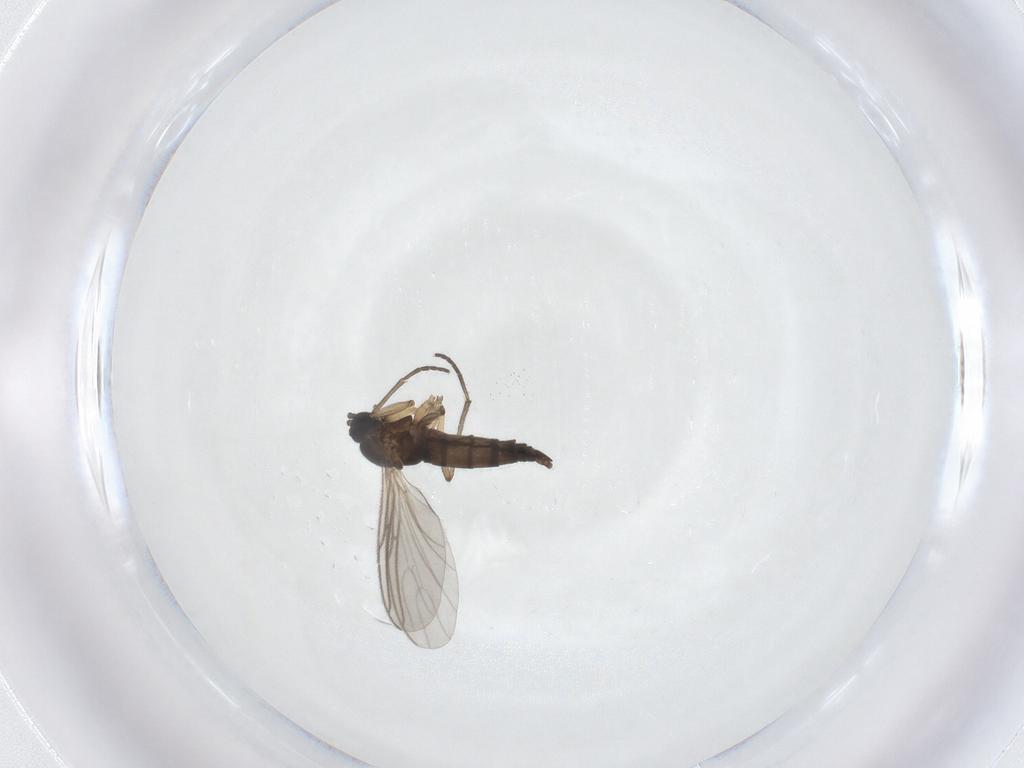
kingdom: Animalia
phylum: Arthropoda
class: Insecta
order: Diptera
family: Sciaridae
